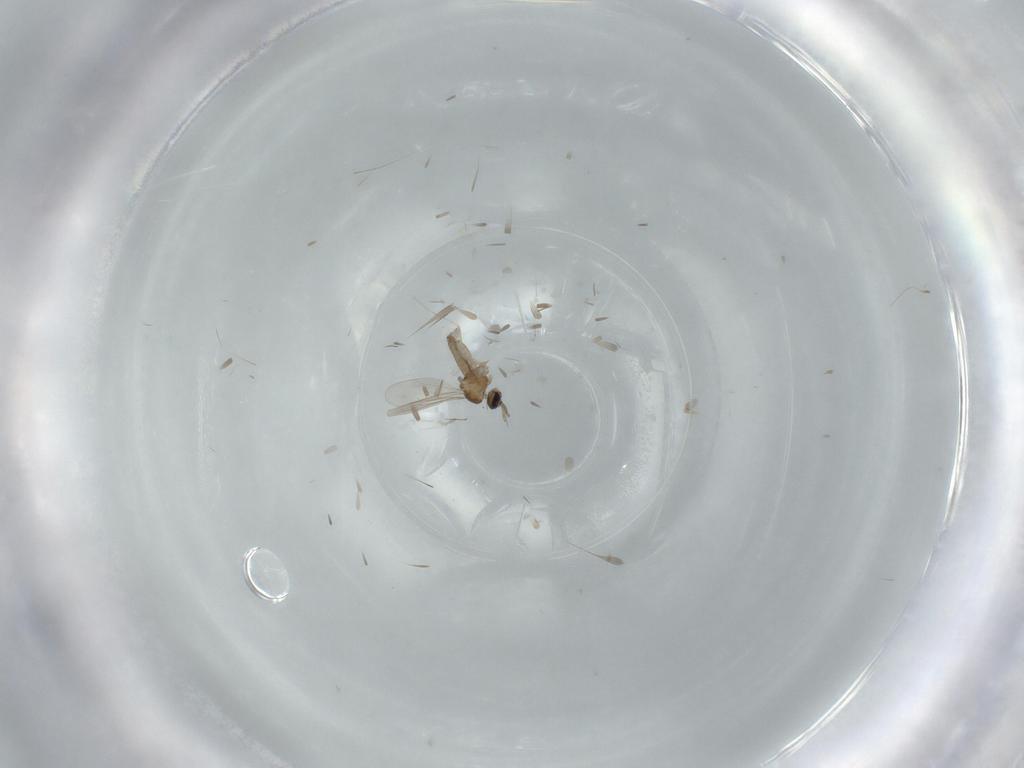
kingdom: Animalia
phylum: Arthropoda
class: Insecta
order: Diptera
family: Cecidomyiidae
